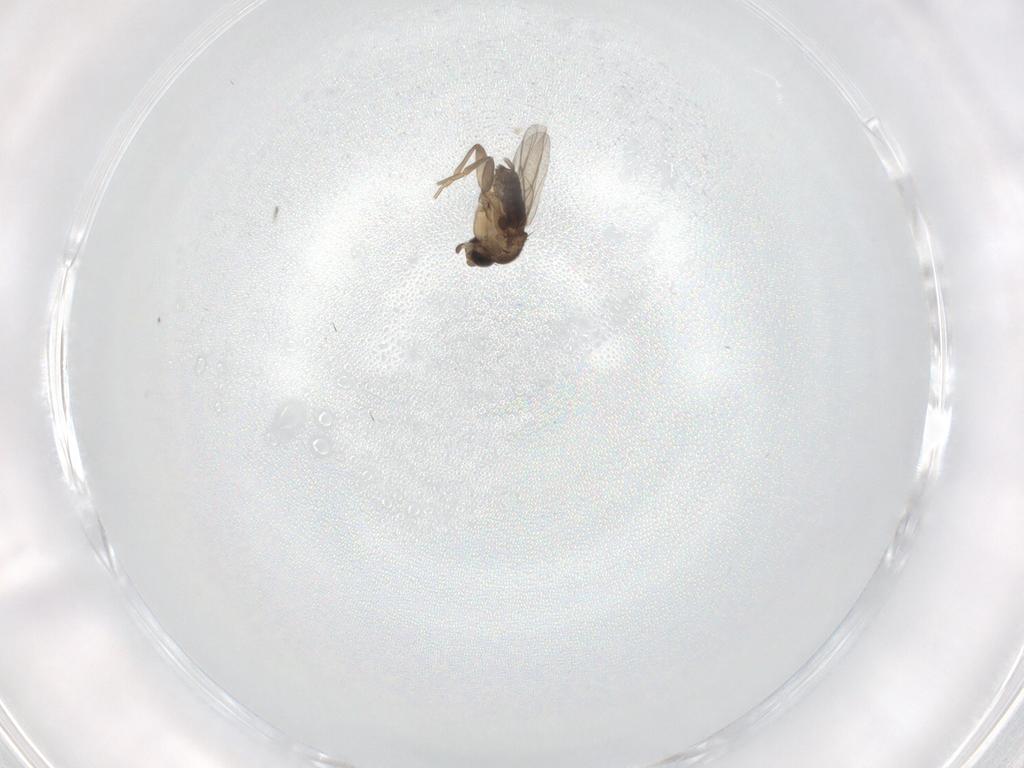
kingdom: Animalia
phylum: Arthropoda
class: Insecta
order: Diptera
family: Phoridae
